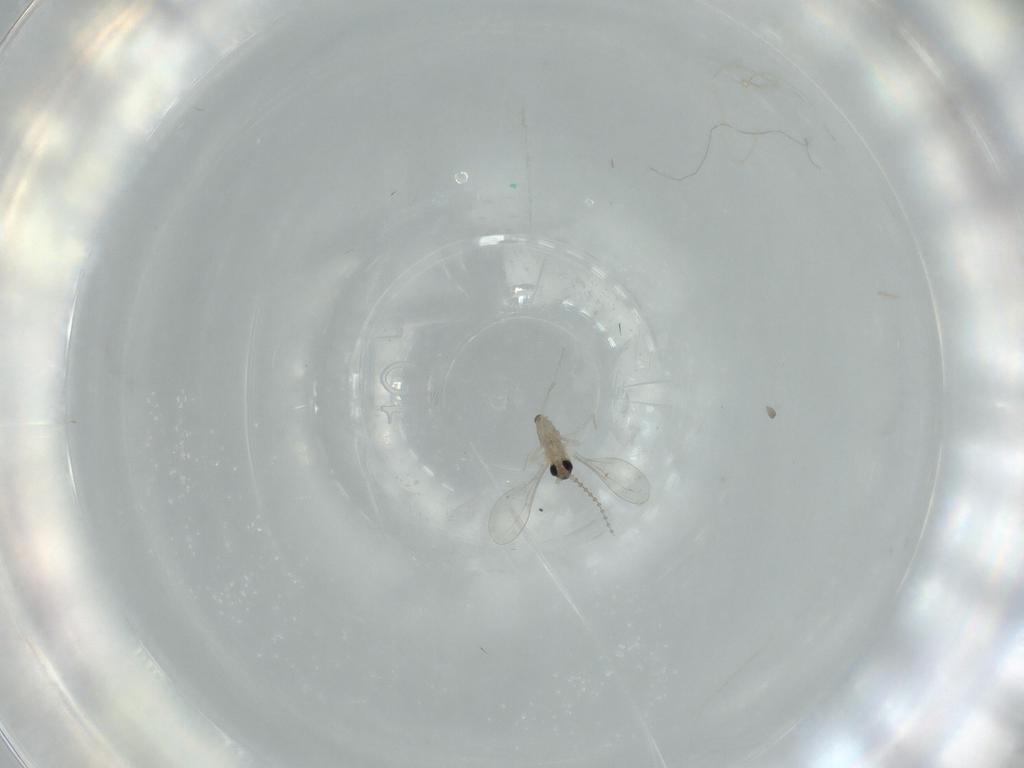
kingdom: Animalia
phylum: Arthropoda
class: Insecta
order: Diptera
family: Cecidomyiidae
